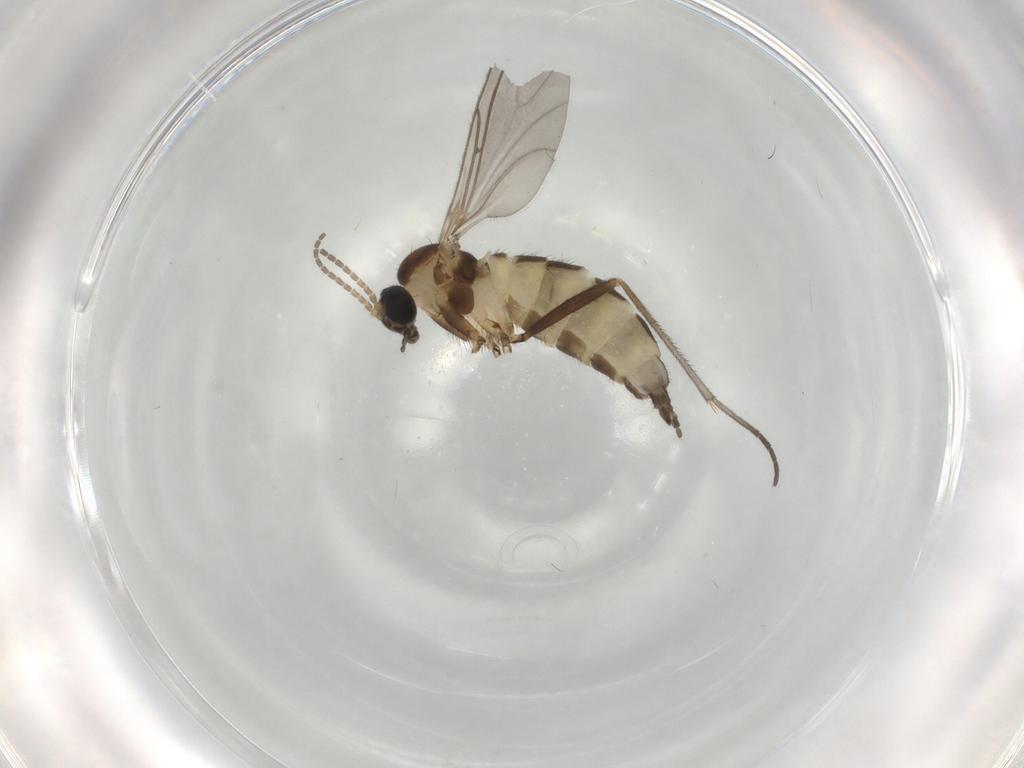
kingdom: Animalia
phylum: Arthropoda
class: Insecta
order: Diptera
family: Sciaridae
